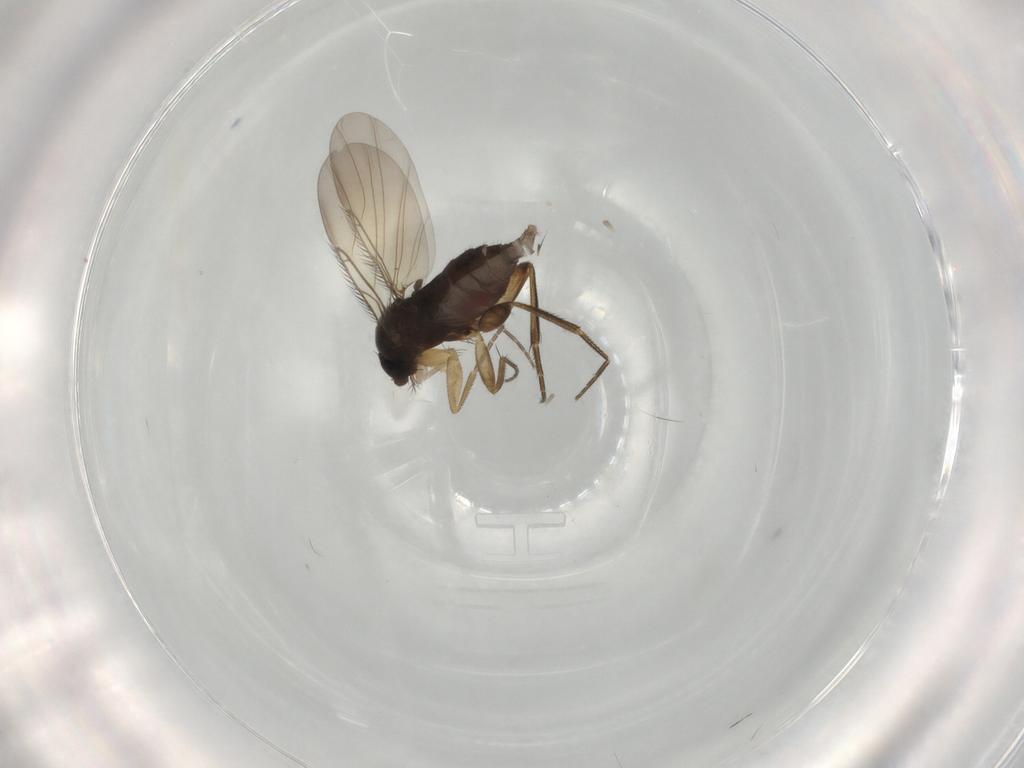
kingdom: Animalia
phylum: Arthropoda
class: Insecta
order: Diptera
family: Phoridae
